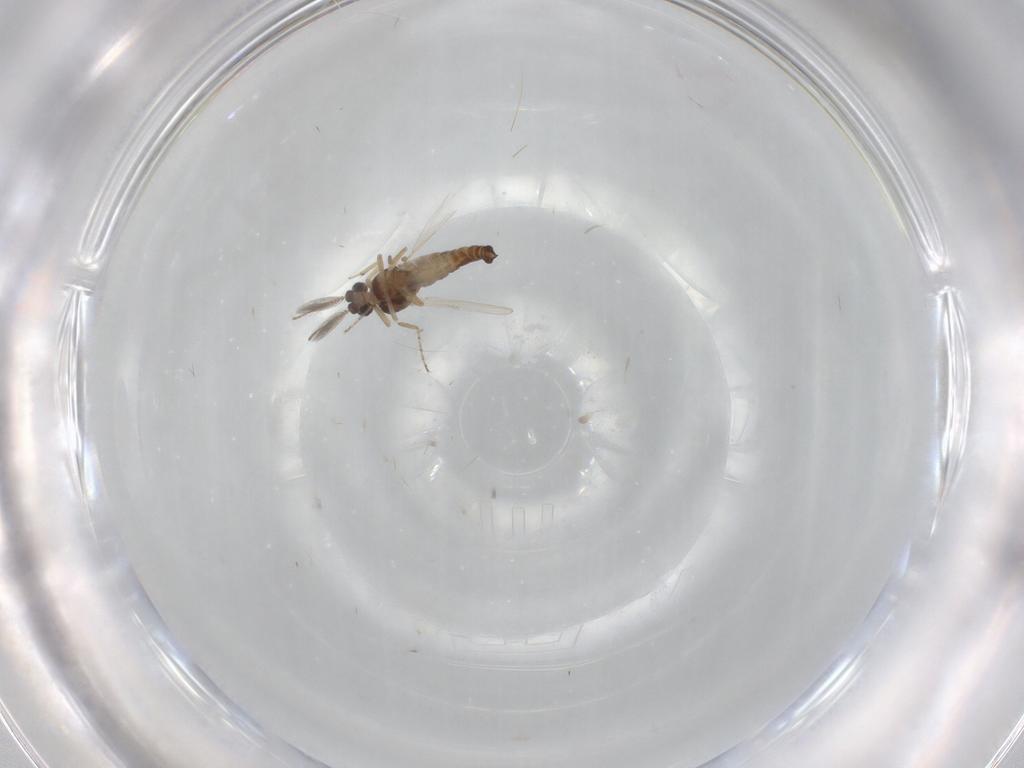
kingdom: Animalia
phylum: Arthropoda
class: Insecta
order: Diptera
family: Ceratopogonidae
